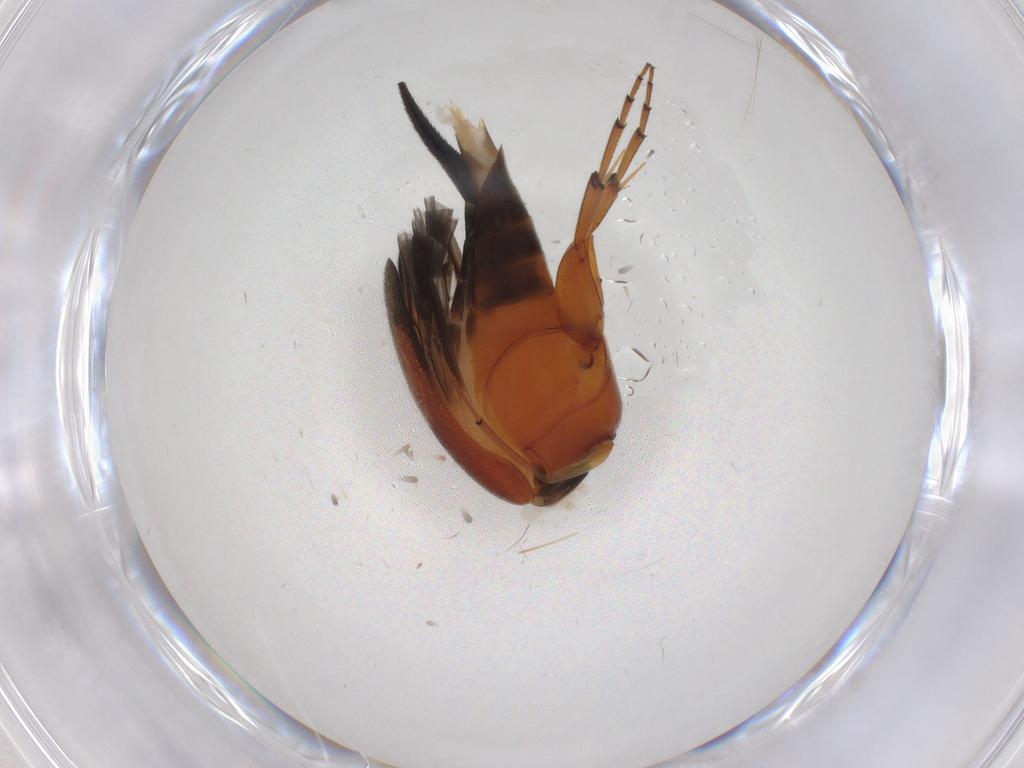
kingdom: Animalia
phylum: Arthropoda
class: Insecta
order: Coleoptera
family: Mordellidae
